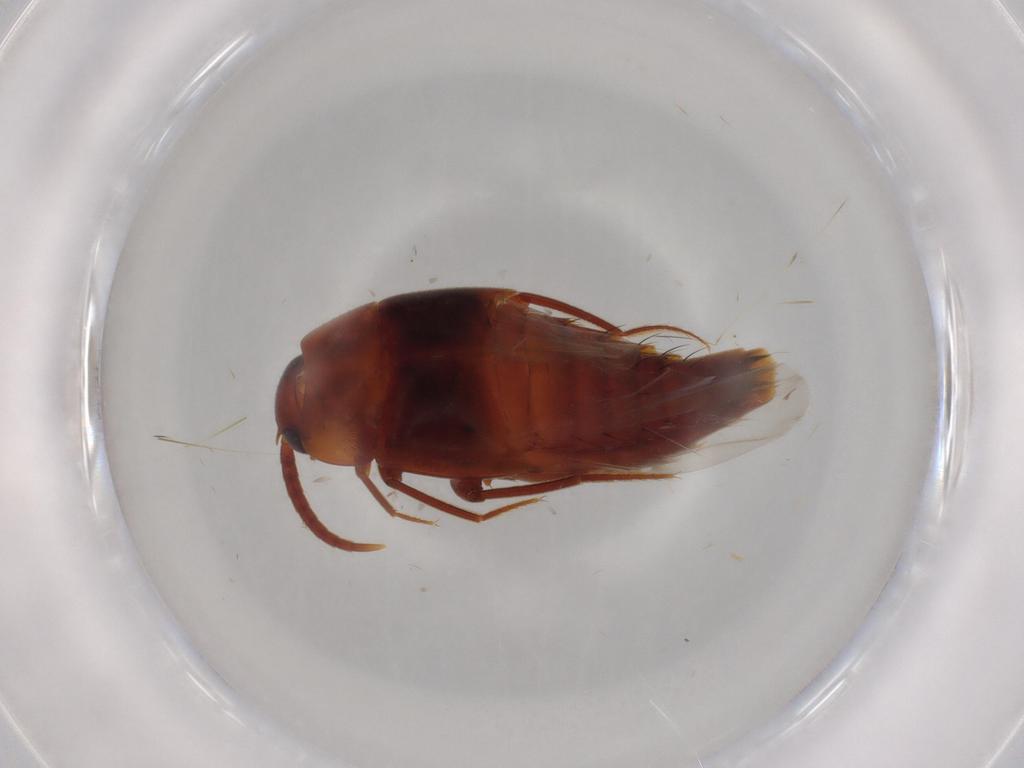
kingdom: Animalia
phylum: Arthropoda
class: Insecta
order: Coleoptera
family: Staphylinidae
